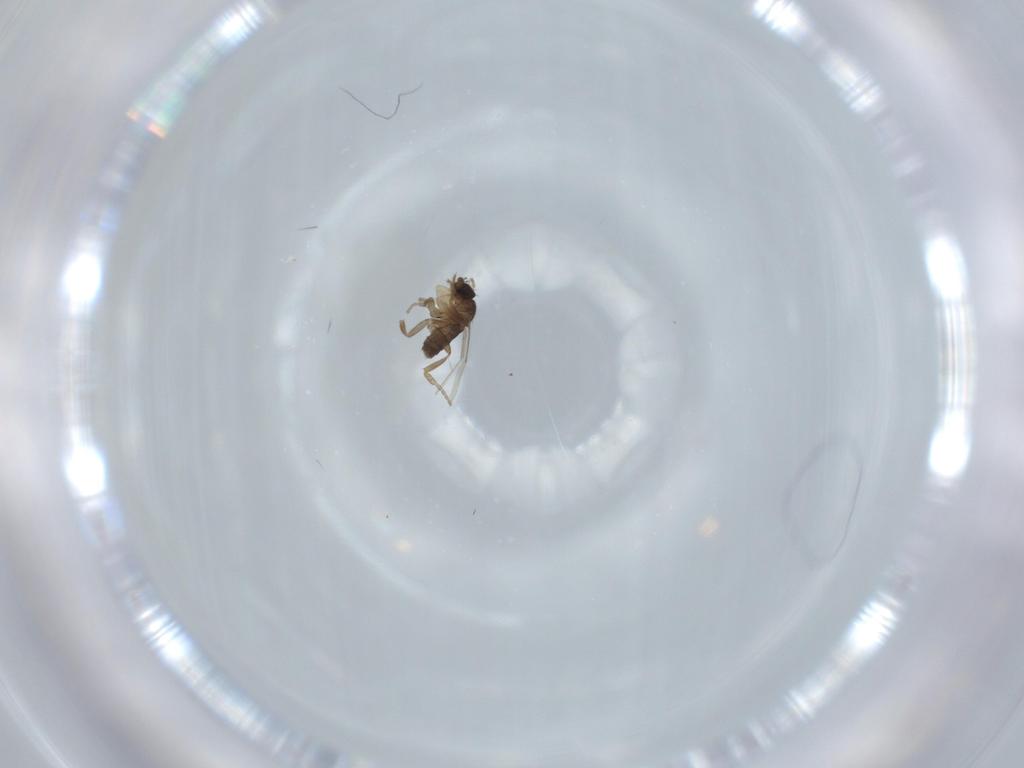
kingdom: Animalia
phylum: Arthropoda
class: Insecta
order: Diptera
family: Phoridae
